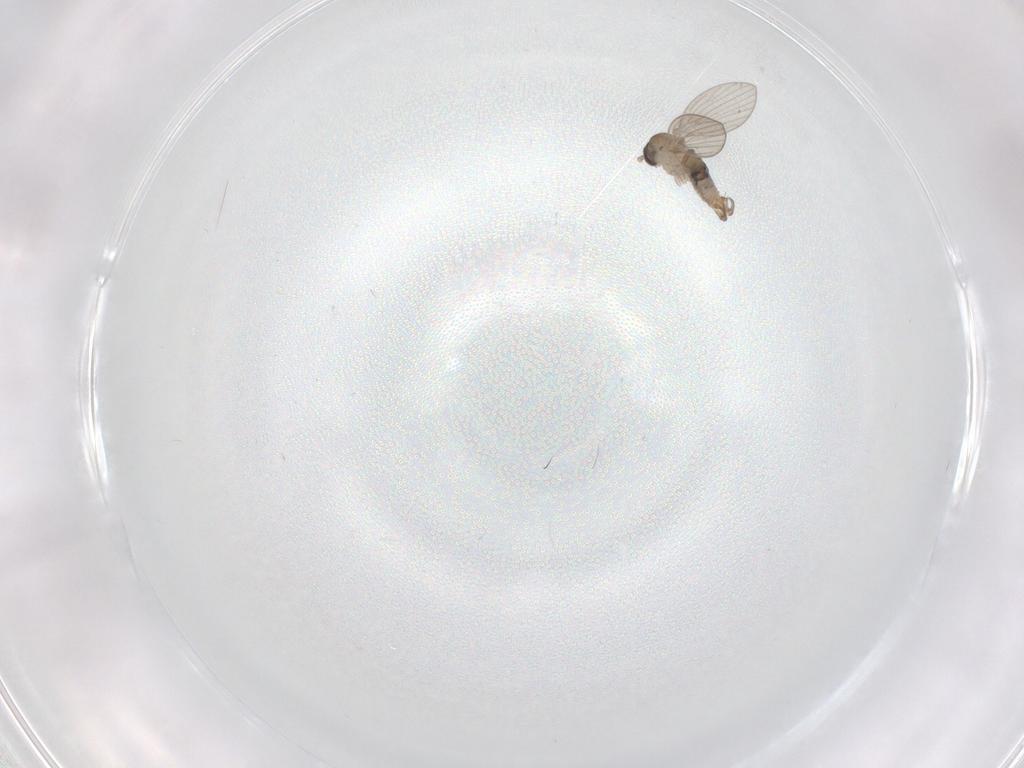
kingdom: Animalia
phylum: Arthropoda
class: Insecta
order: Diptera
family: Psychodidae
